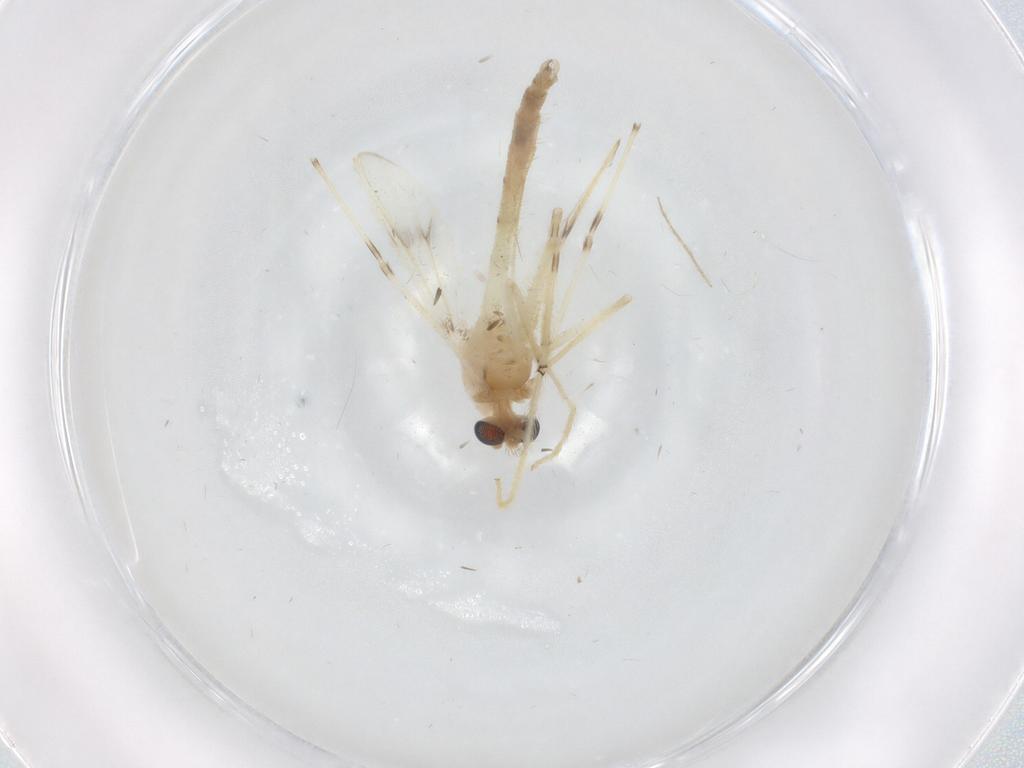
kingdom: Animalia
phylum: Arthropoda
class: Insecta
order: Diptera
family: Chironomidae
